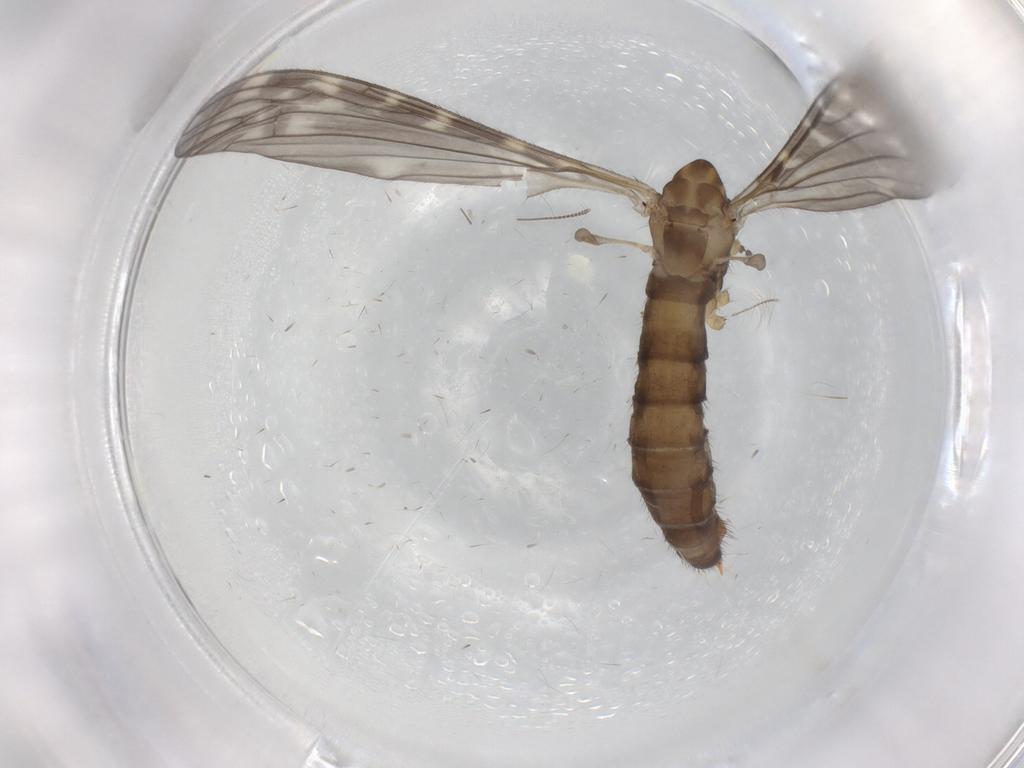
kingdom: Animalia
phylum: Arthropoda
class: Insecta
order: Diptera
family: Limoniidae
